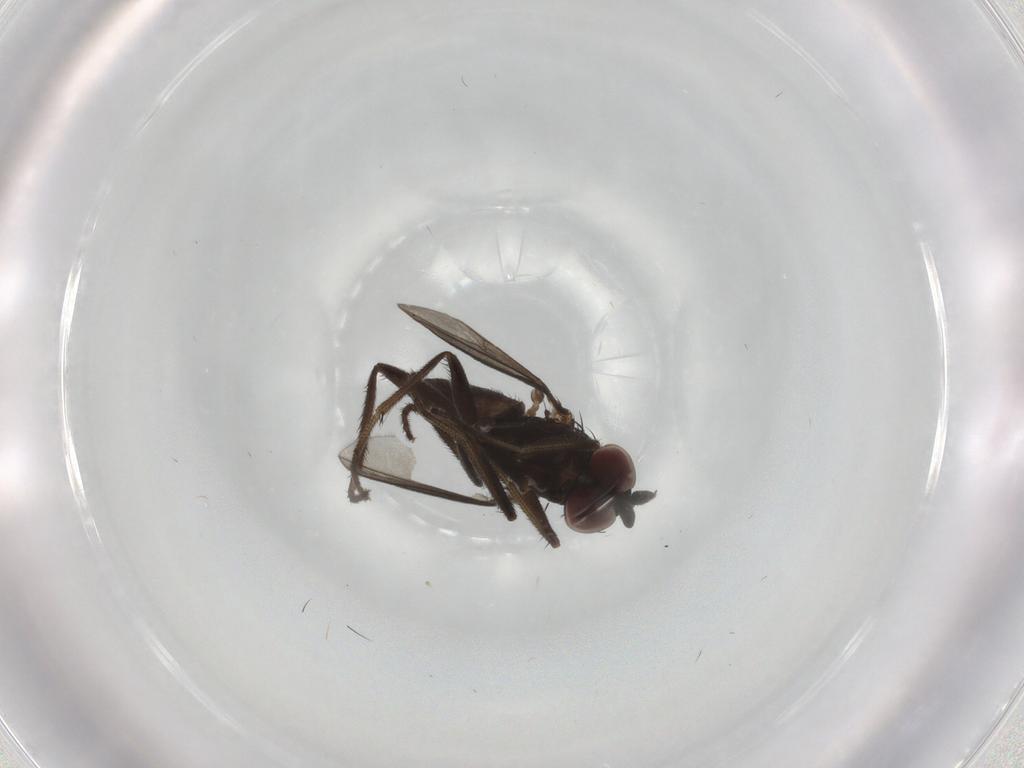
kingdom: Animalia
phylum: Arthropoda
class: Insecta
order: Diptera
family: Dolichopodidae
